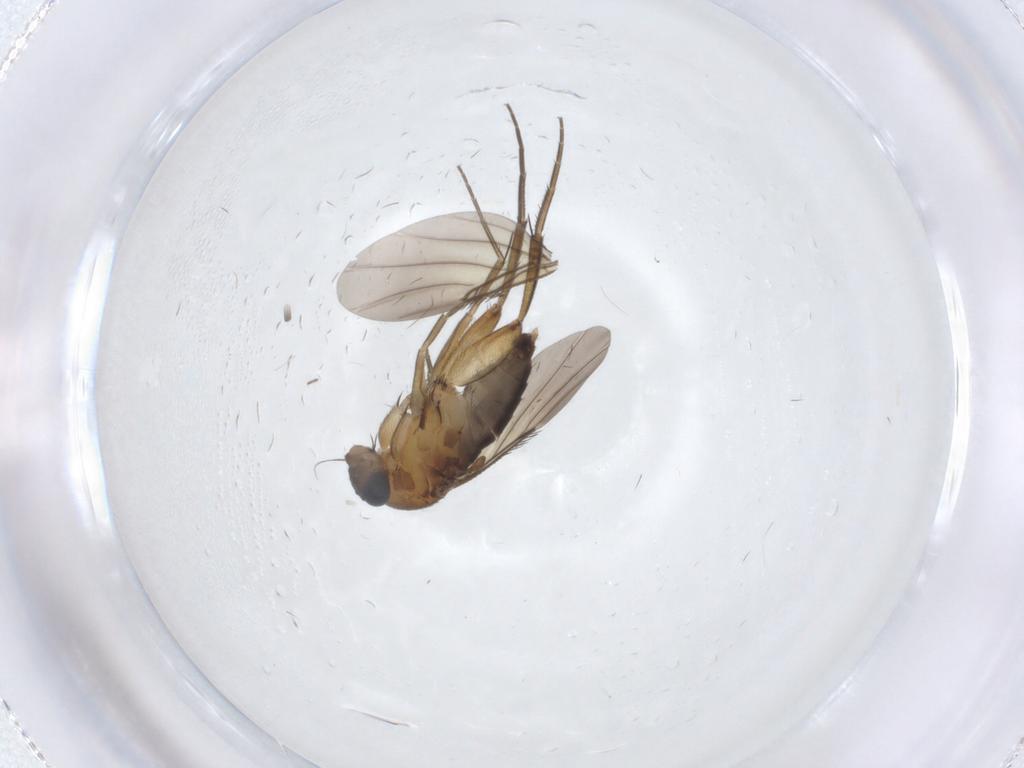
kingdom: Animalia
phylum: Arthropoda
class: Insecta
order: Diptera
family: Phoridae
